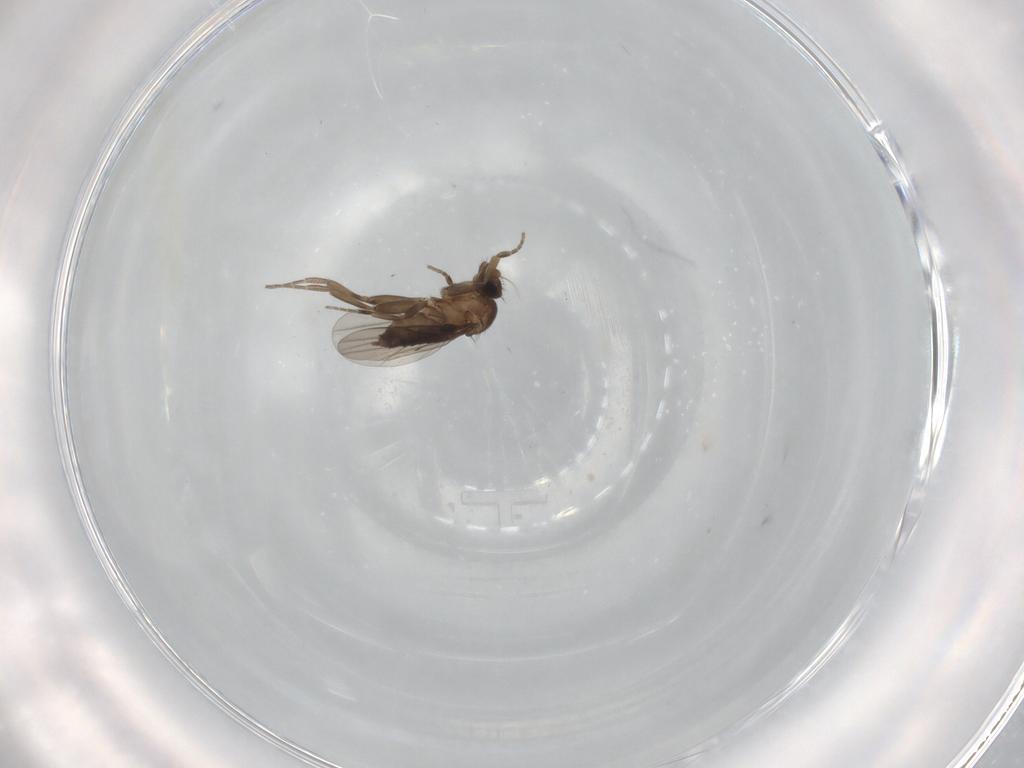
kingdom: Animalia
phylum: Arthropoda
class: Insecta
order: Diptera
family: Phoridae
